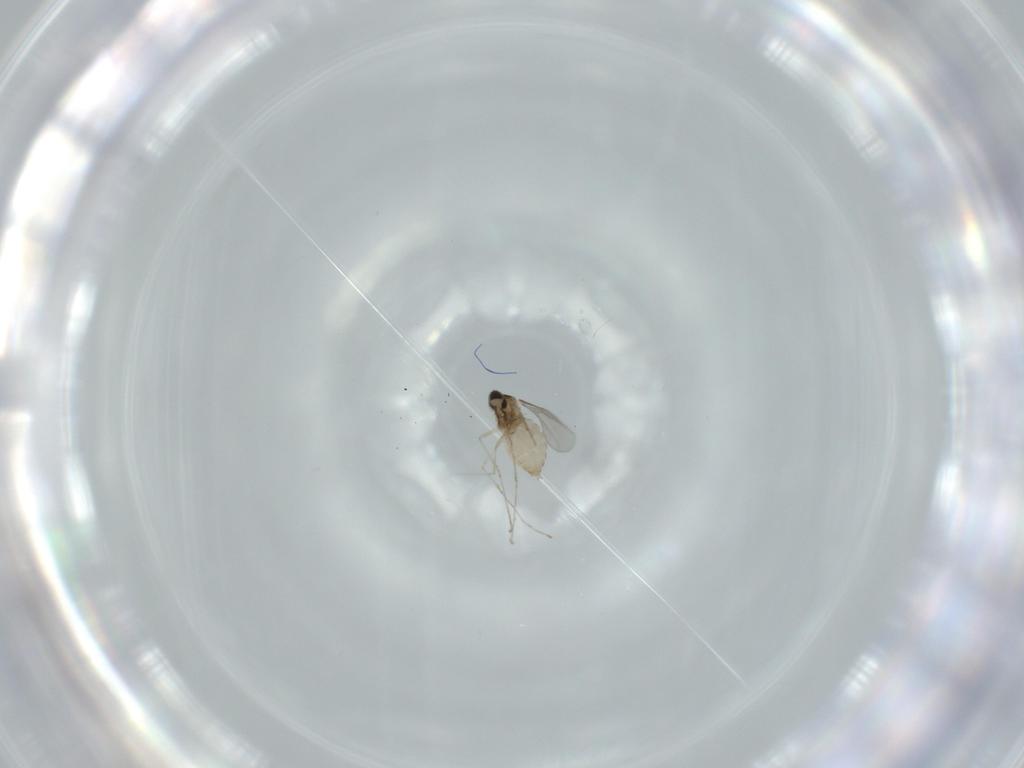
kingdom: Animalia
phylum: Arthropoda
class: Insecta
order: Diptera
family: Cecidomyiidae
